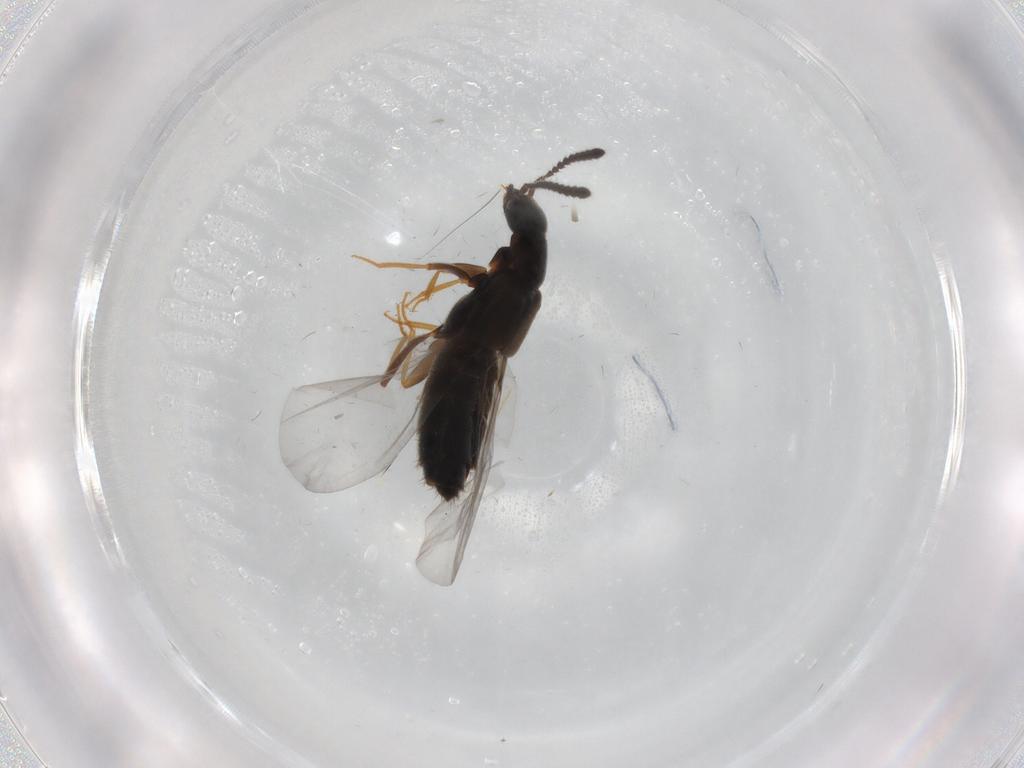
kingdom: Animalia
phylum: Arthropoda
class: Insecta
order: Coleoptera
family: Staphylinidae
